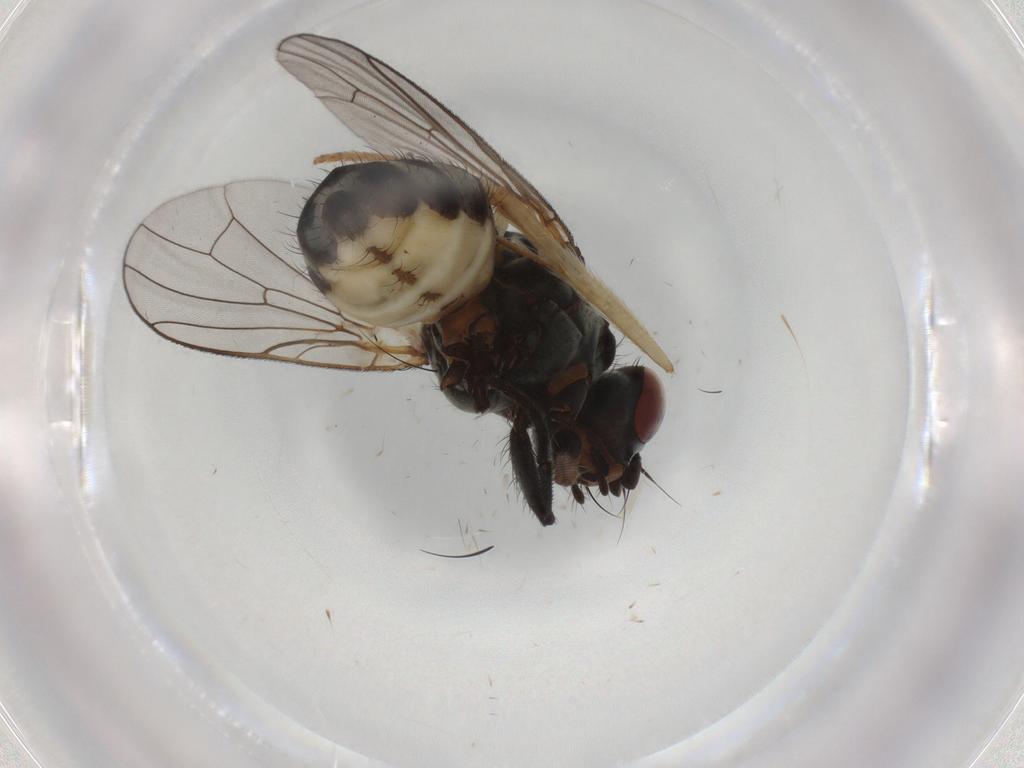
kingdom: Animalia
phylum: Arthropoda
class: Insecta
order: Diptera
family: Anthomyiidae
